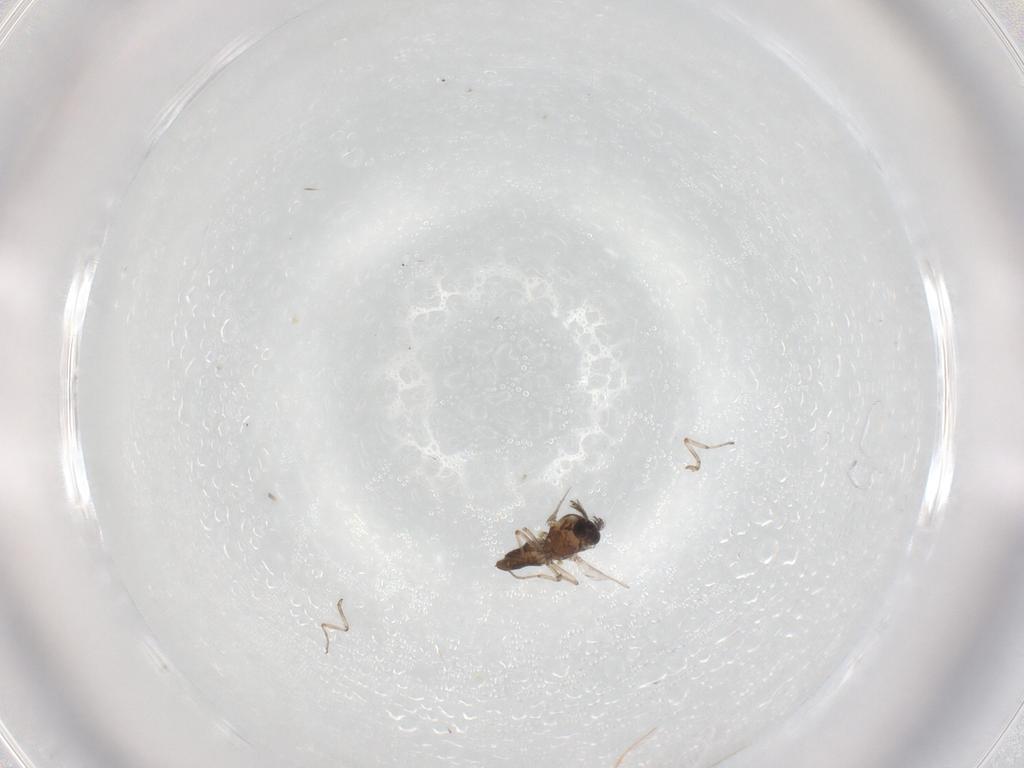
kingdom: Animalia
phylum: Arthropoda
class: Insecta
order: Diptera
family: Ceratopogonidae
